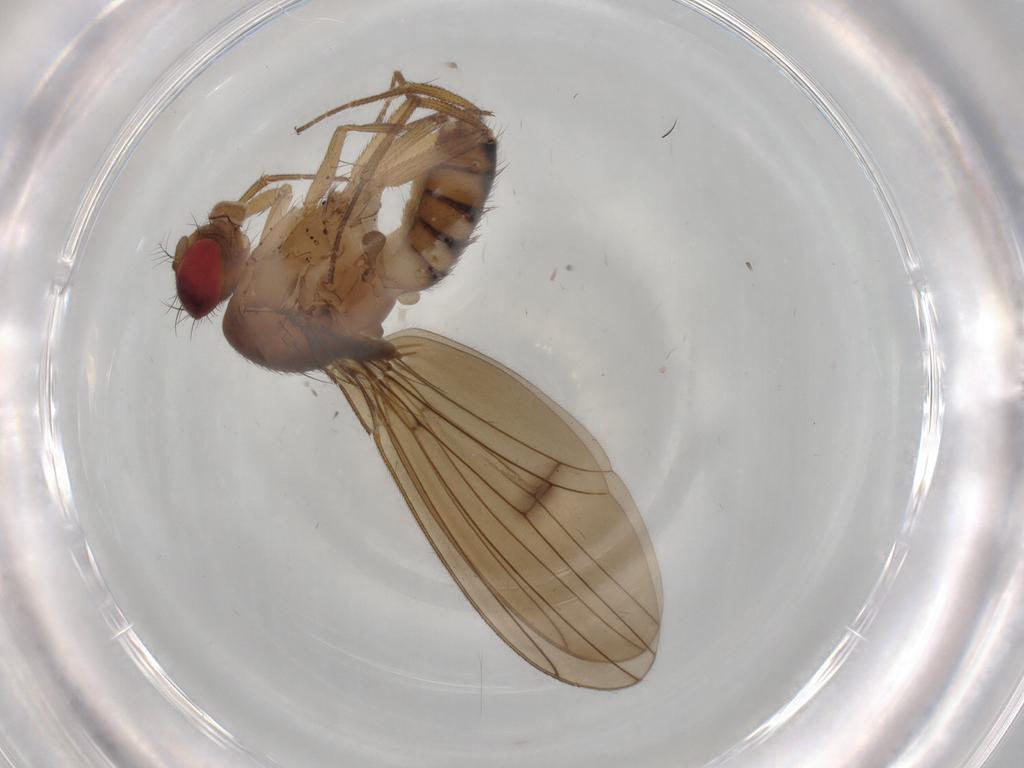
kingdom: Animalia
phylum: Arthropoda
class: Insecta
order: Diptera
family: Drosophilidae
